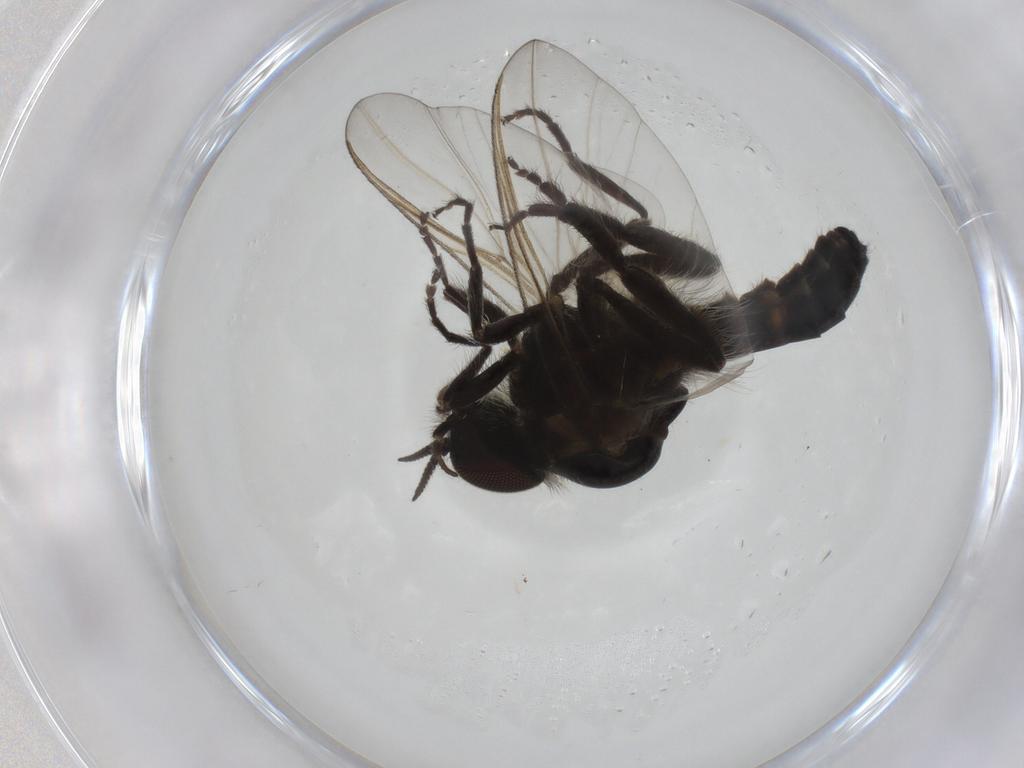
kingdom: Animalia
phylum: Arthropoda
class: Insecta
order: Diptera
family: Simuliidae
